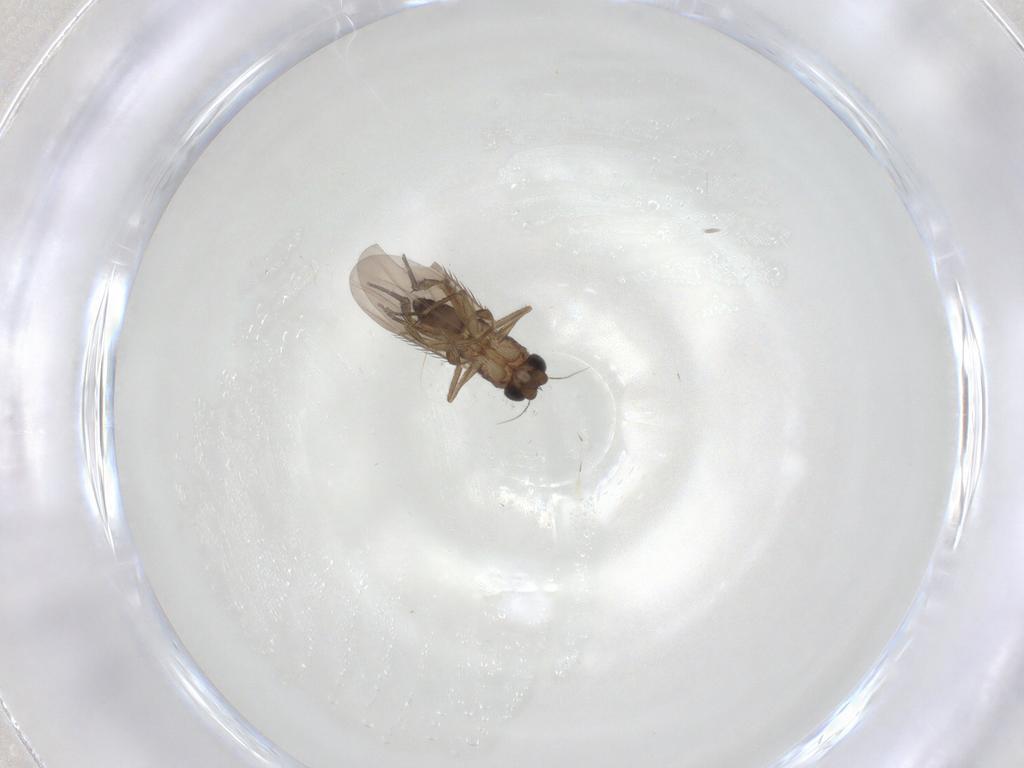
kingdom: Animalia
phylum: Arthropoda
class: Insecta
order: Diptera
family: Phoridae
